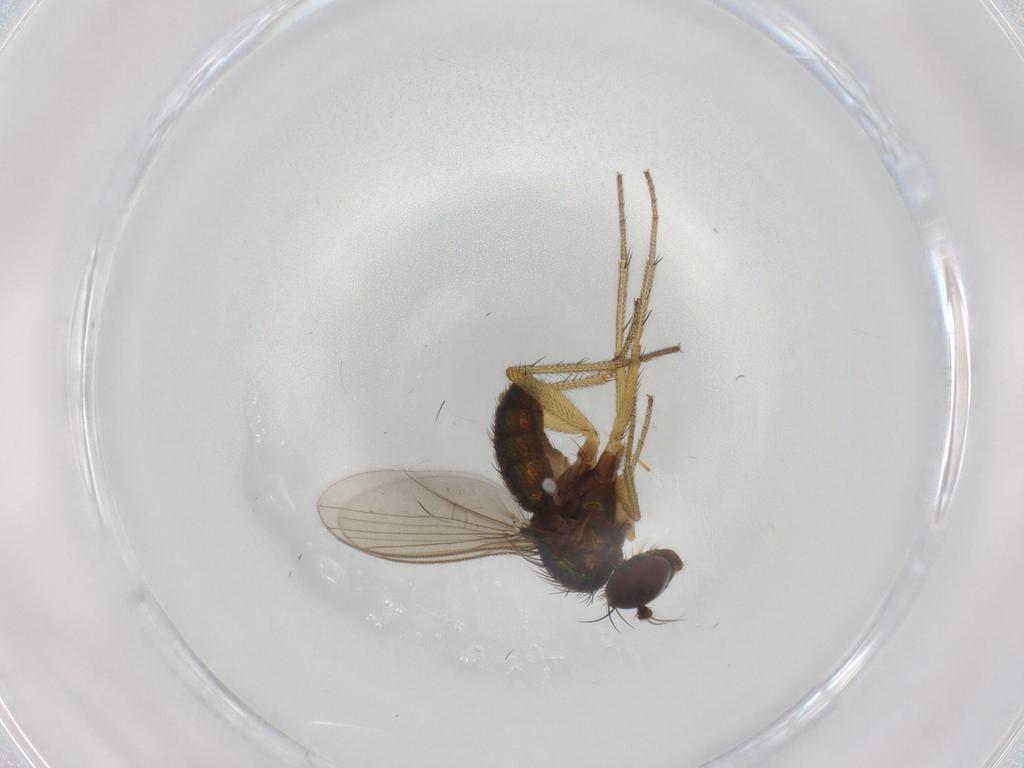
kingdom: Animalia
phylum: Arthropoda
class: Insecta
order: Diptera
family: Dolichopodidae
